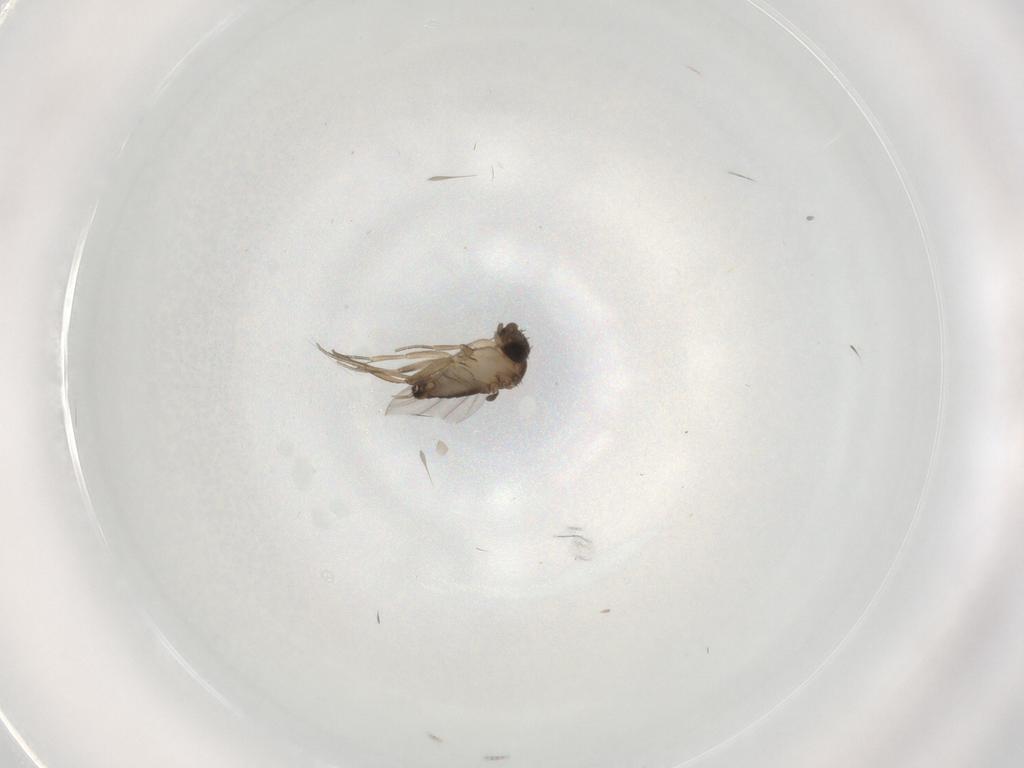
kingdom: Animalia
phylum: Arthropoda
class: Insecta
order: Diptera
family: Phoridae
